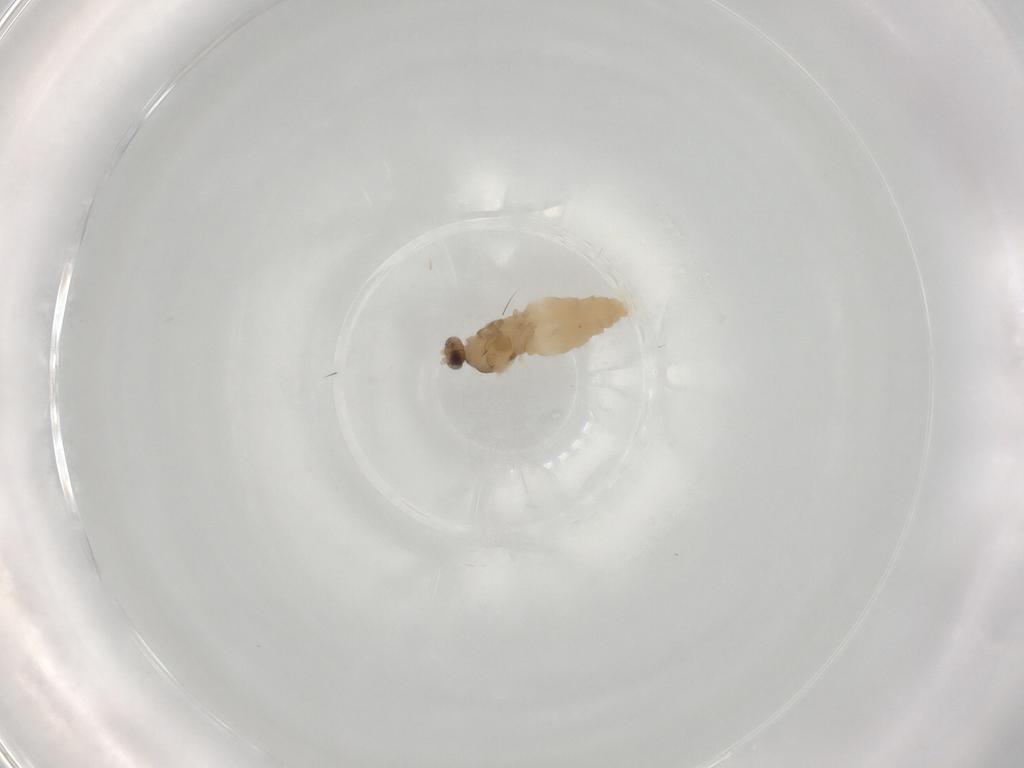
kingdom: Animalia
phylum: Arthropoda
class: Insecta
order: Diptera
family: Cecidomyiidae
